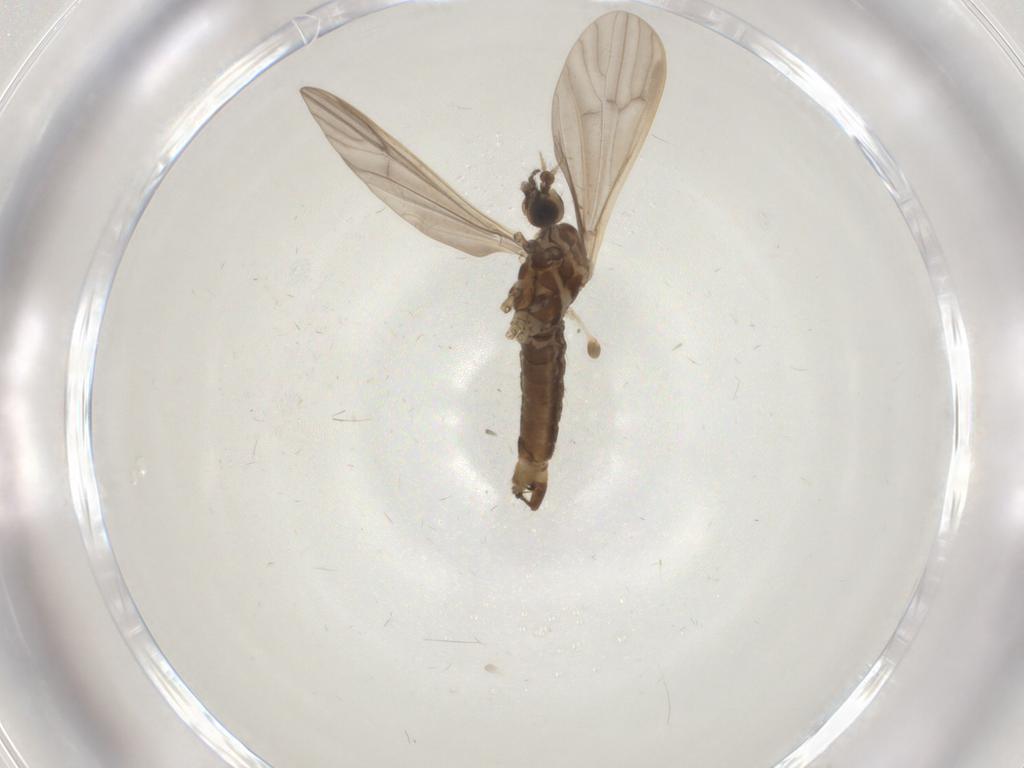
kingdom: Animalia
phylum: Arthropoda
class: Insecta
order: Diptera
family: Limoniidae
